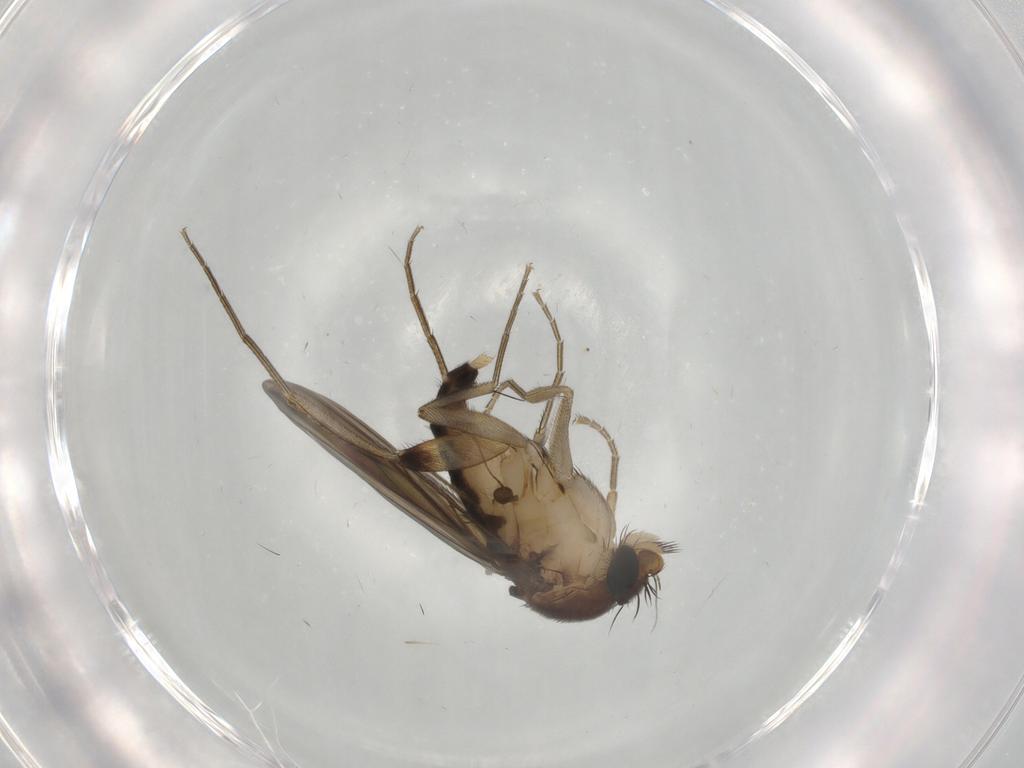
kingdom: Animalia
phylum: Arthropoda
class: Insecta
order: Diptera
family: Phoridae
